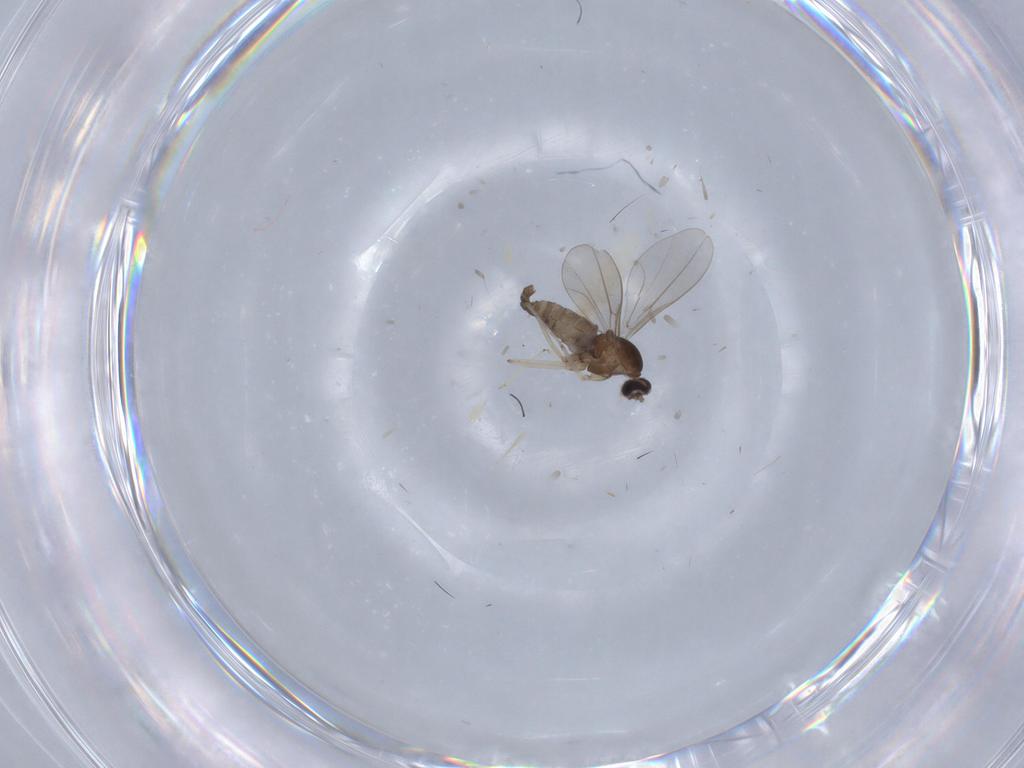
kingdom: Animalia
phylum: Arthropoda
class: Insecta
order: Diptera
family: Cecidomyiidae
